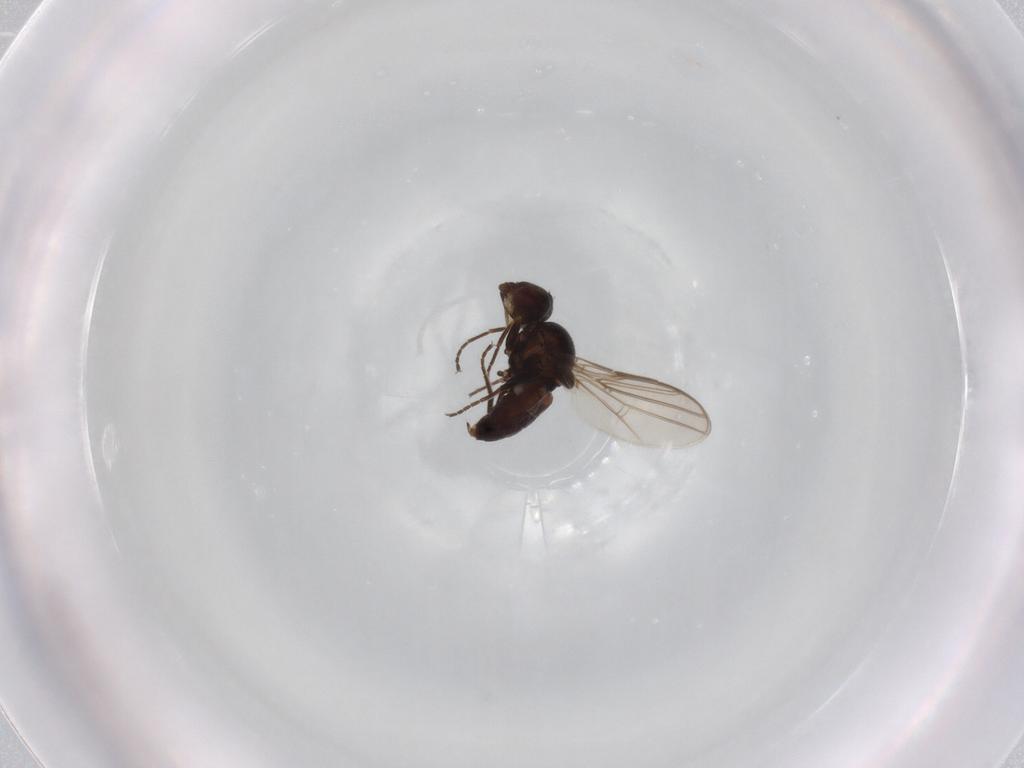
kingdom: Animalia
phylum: Arthropoda
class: Insecta
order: Diptera
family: Chloropidae
